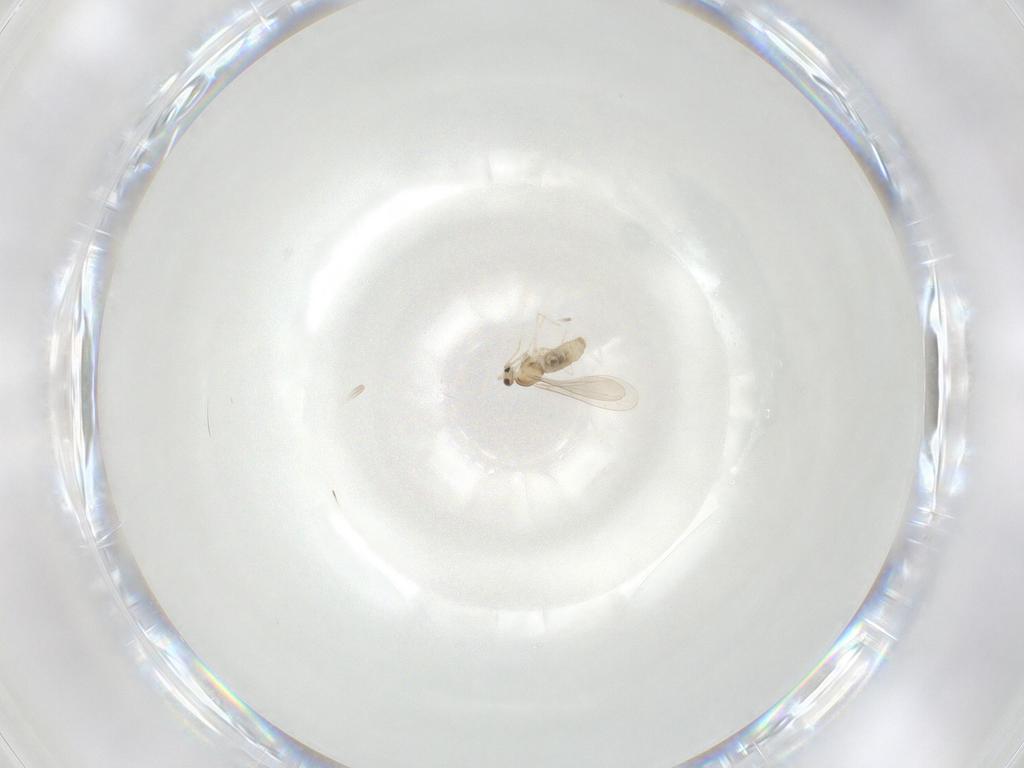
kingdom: Animalia
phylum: Arthropoda
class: Insecta
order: Diptera
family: Cecidomyiidae
